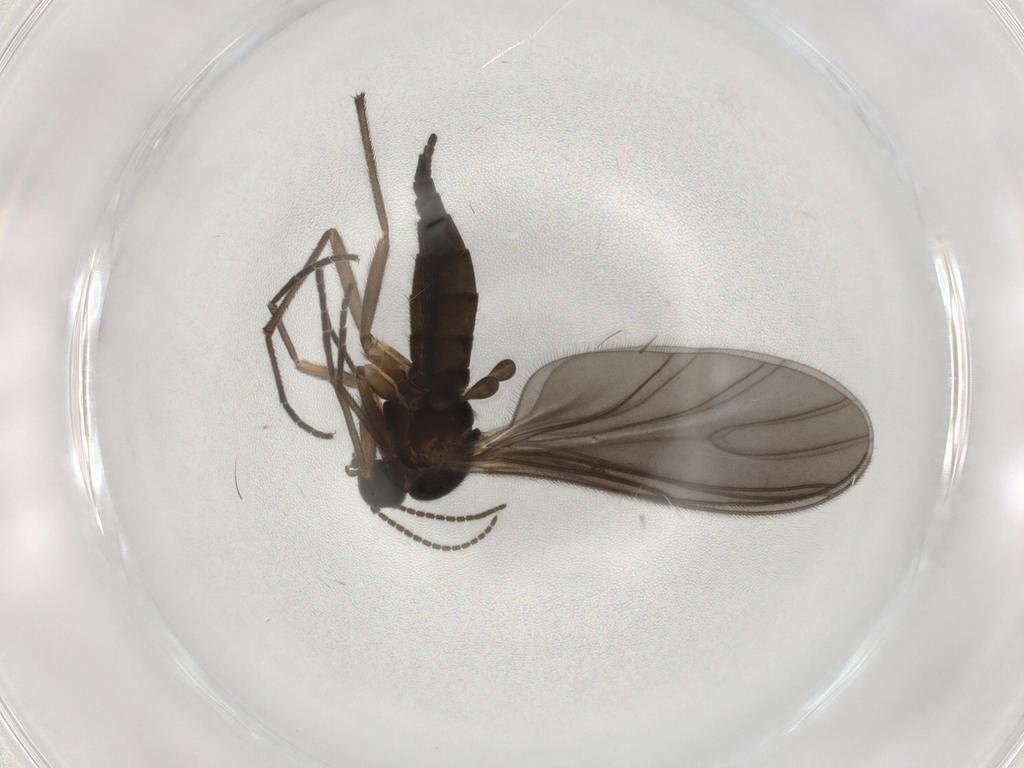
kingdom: Animalia
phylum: Arthropoda
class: Insecta
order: Diptera
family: Sciaridae
